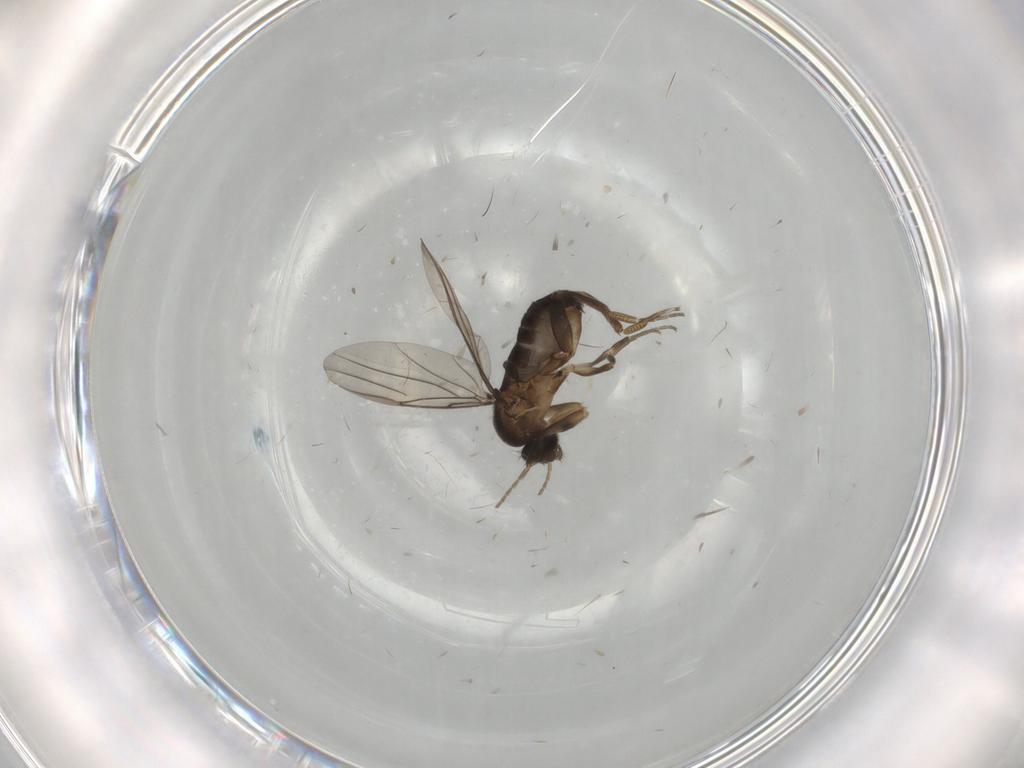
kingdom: Animalia
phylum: Arthropoda
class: Insecta
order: Diptera
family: Phoridae
